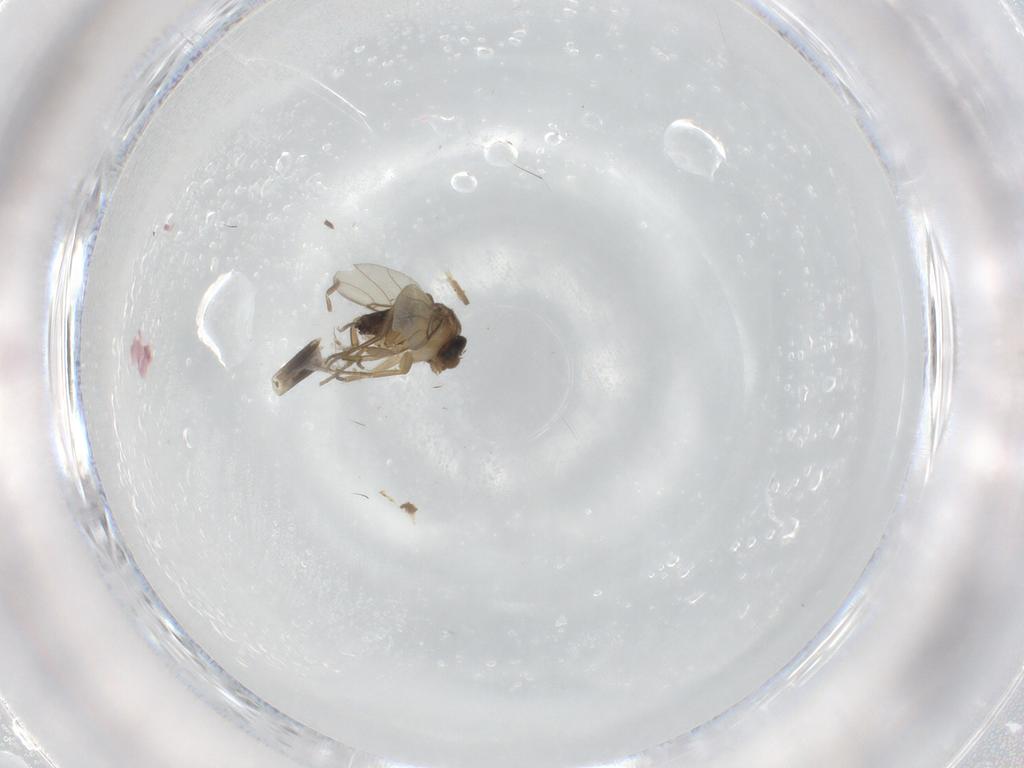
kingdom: Animalia
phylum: Arthropoda
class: Insecta
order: Diptera
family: Phoridae
